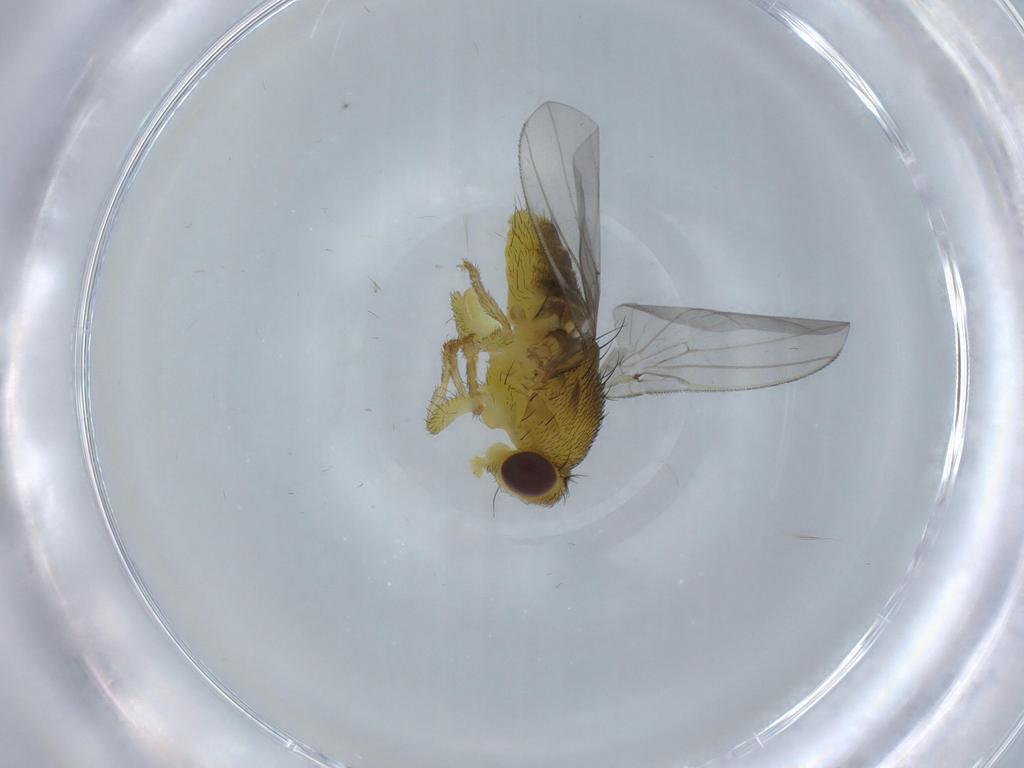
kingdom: Animalia
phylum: Arthropoda
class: Insecta
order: Diptera
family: Fergusoninidae
